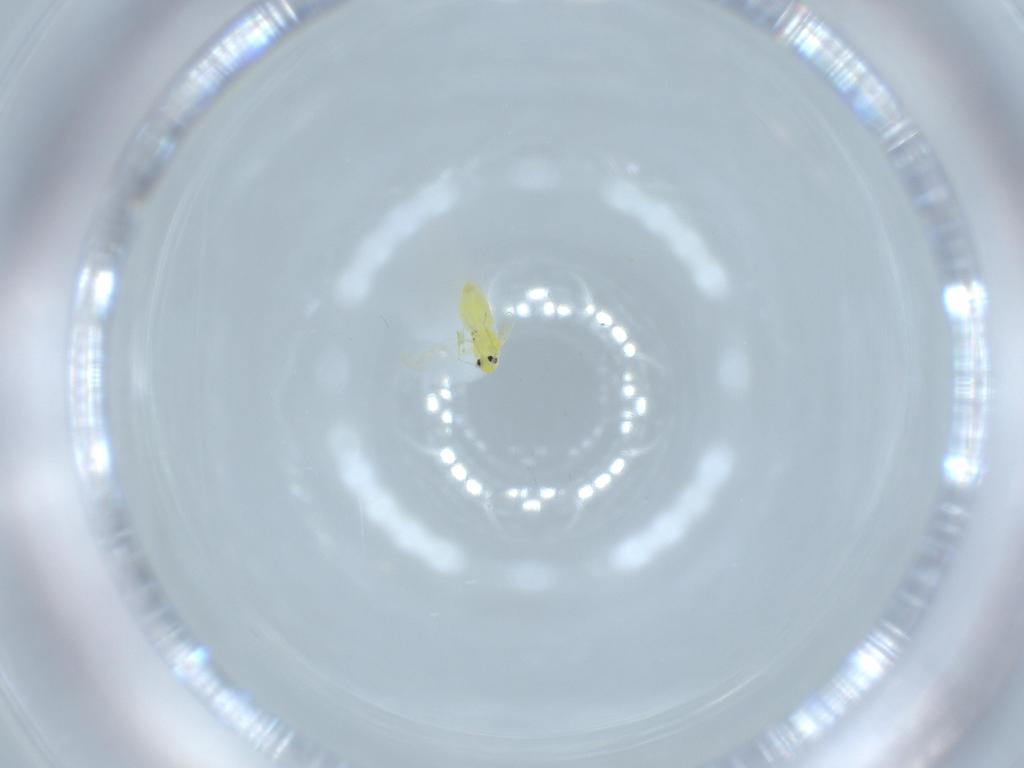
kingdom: Animalia
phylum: Arthropoda
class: Insecta
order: Hemiptera
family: Aleyrodidae
